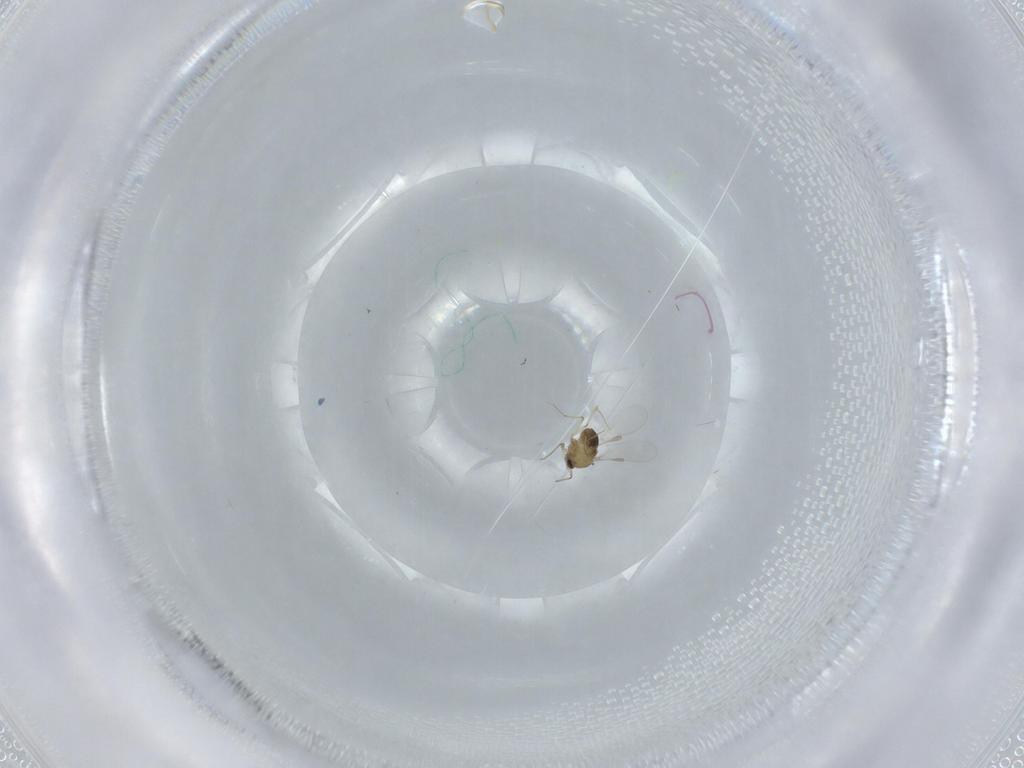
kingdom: Animalia
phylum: Arthropoda
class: Insecta
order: Diptera
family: Chironomidae
